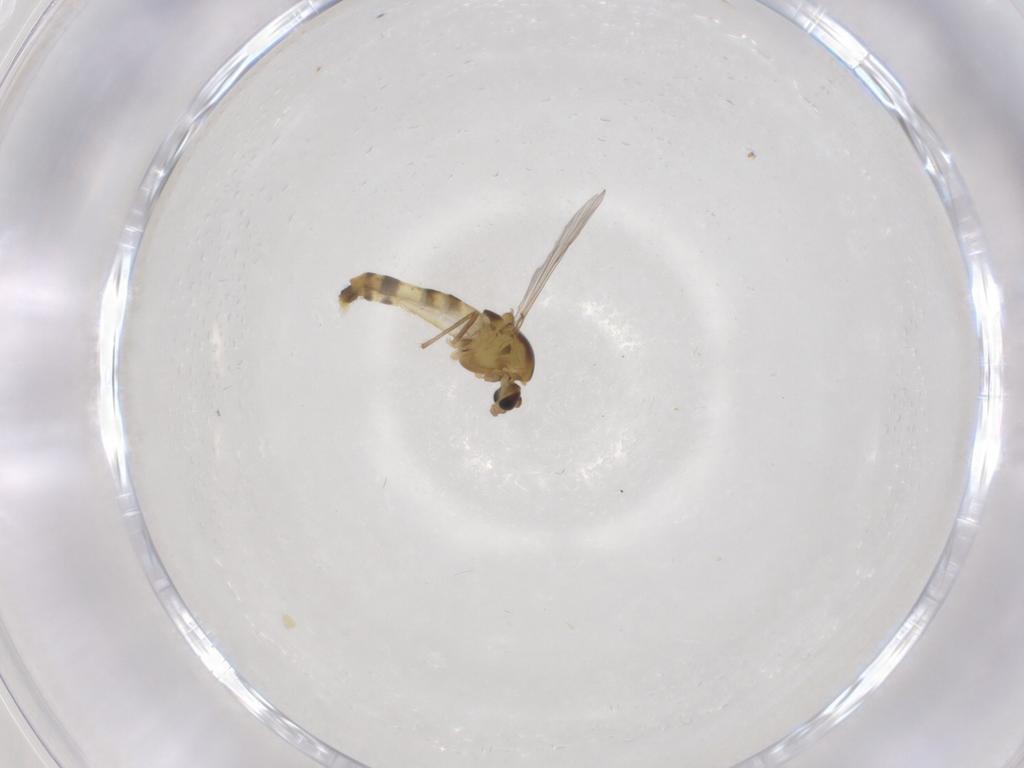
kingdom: Animalia
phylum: Arthropoda
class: Insecta
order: Diptera
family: Chironomidae
